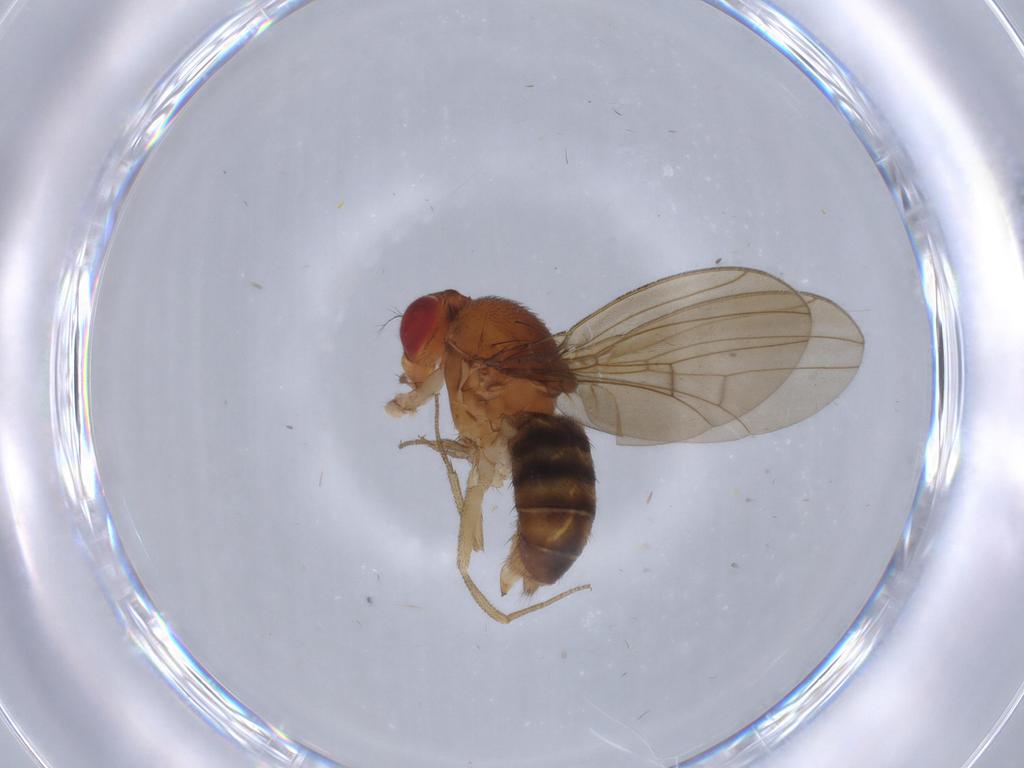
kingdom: Animalia
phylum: Arthropoda
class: Insecta
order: Diptera
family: Drosophilidae
